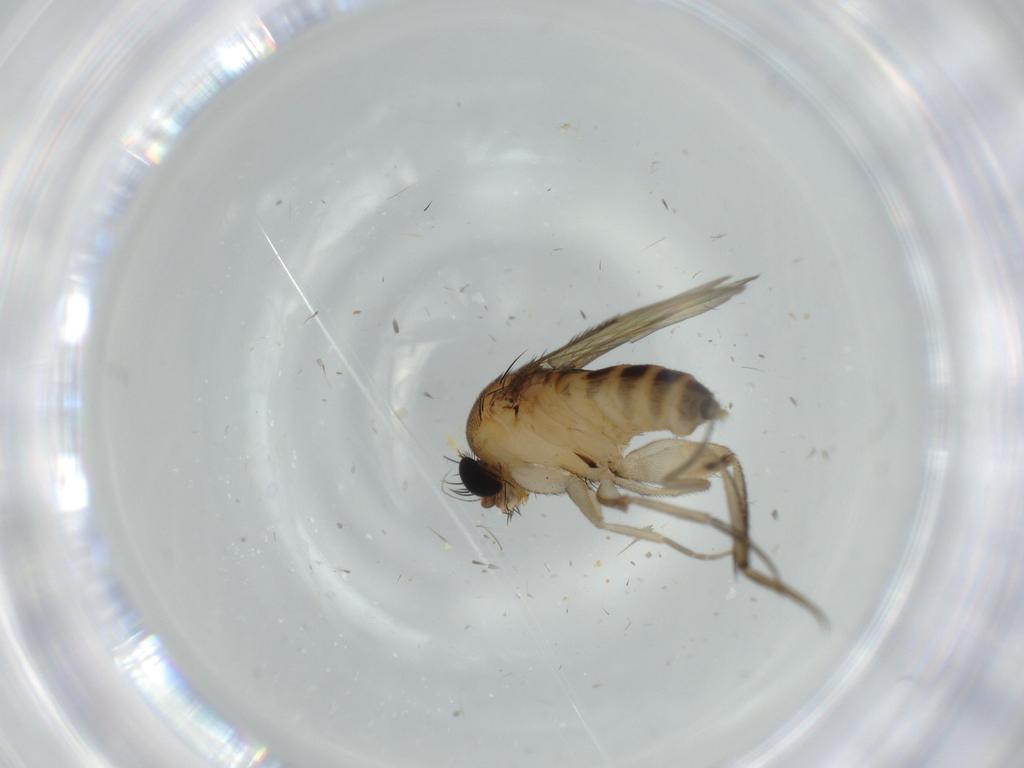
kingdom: Animalia
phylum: Arthropoda
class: Insecta
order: Diptera
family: Phoridae
